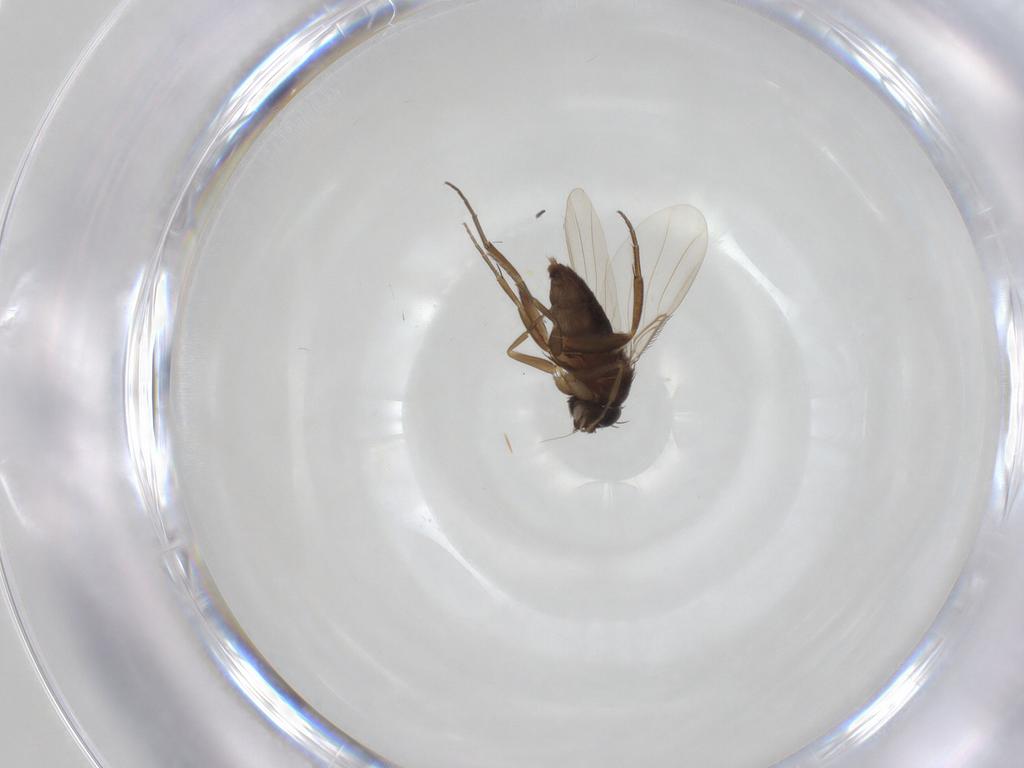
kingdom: Animalia
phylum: Arthropoda
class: Insecta
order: Diptera
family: Phoridae
